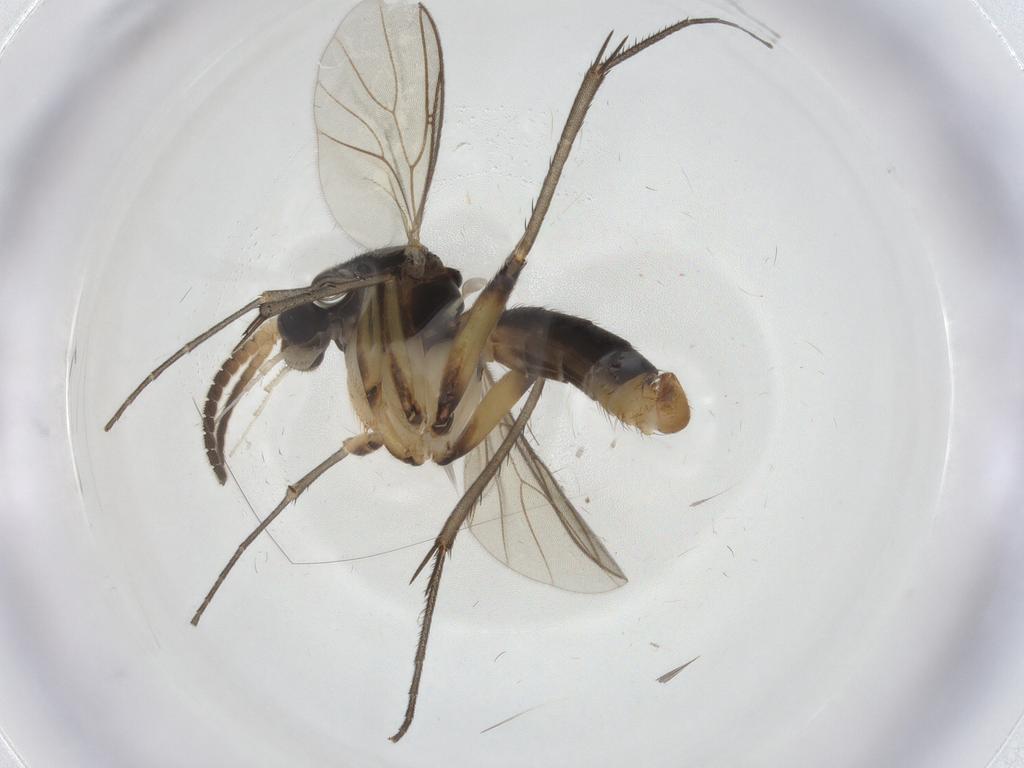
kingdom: Animalia
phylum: Arthropoda
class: Insecta
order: Diptera
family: Mycetophilidae
